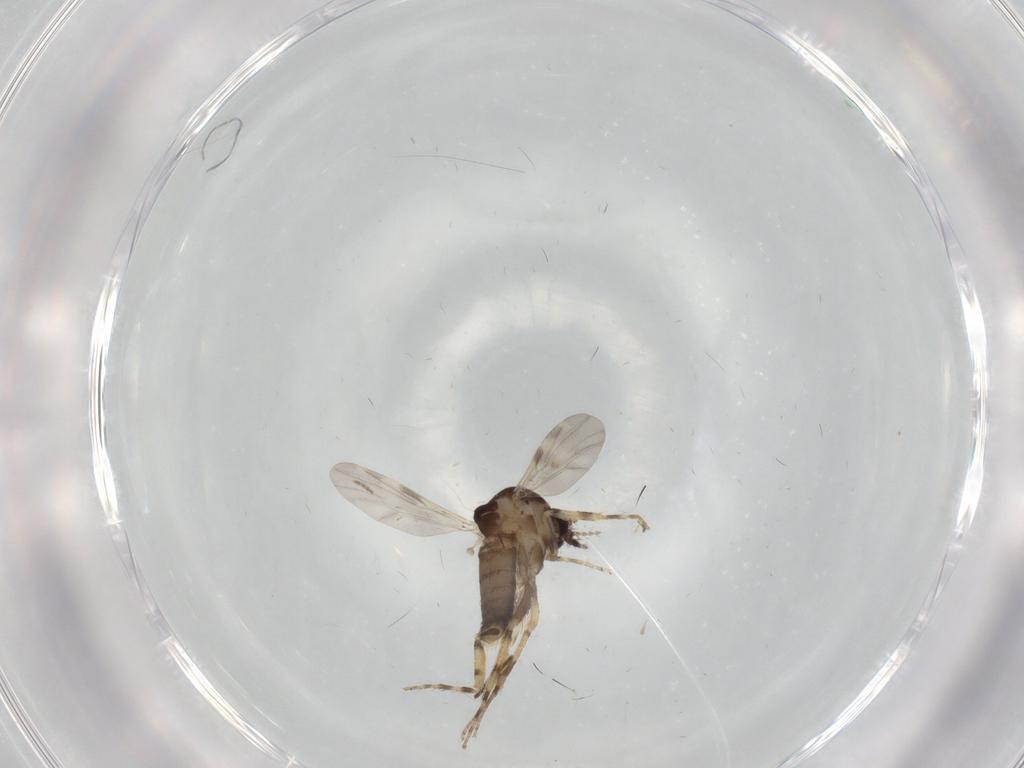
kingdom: Animalia
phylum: Arthropoda
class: Insecta
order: Diptera
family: Ceratopogonidae
